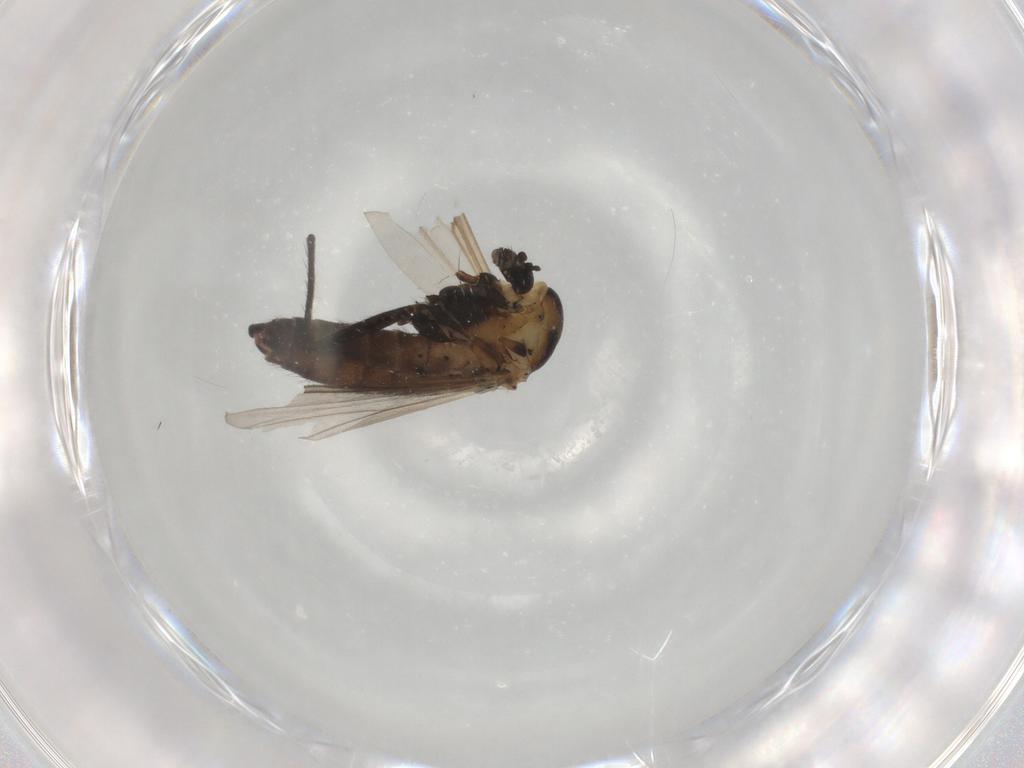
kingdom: Animalia
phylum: Arthropoda
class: Insecta
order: Diptera
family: Chironomidae
